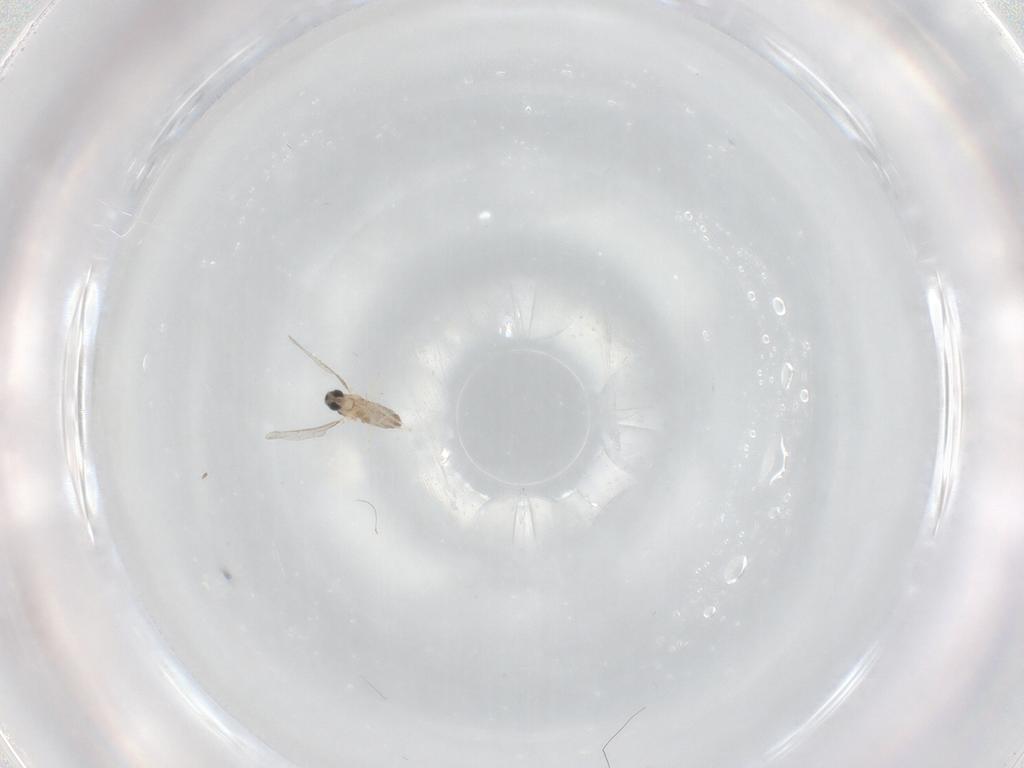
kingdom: Animalia
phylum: Arthropoda
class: Insecta
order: Diptera
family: Cecidomyiidae
